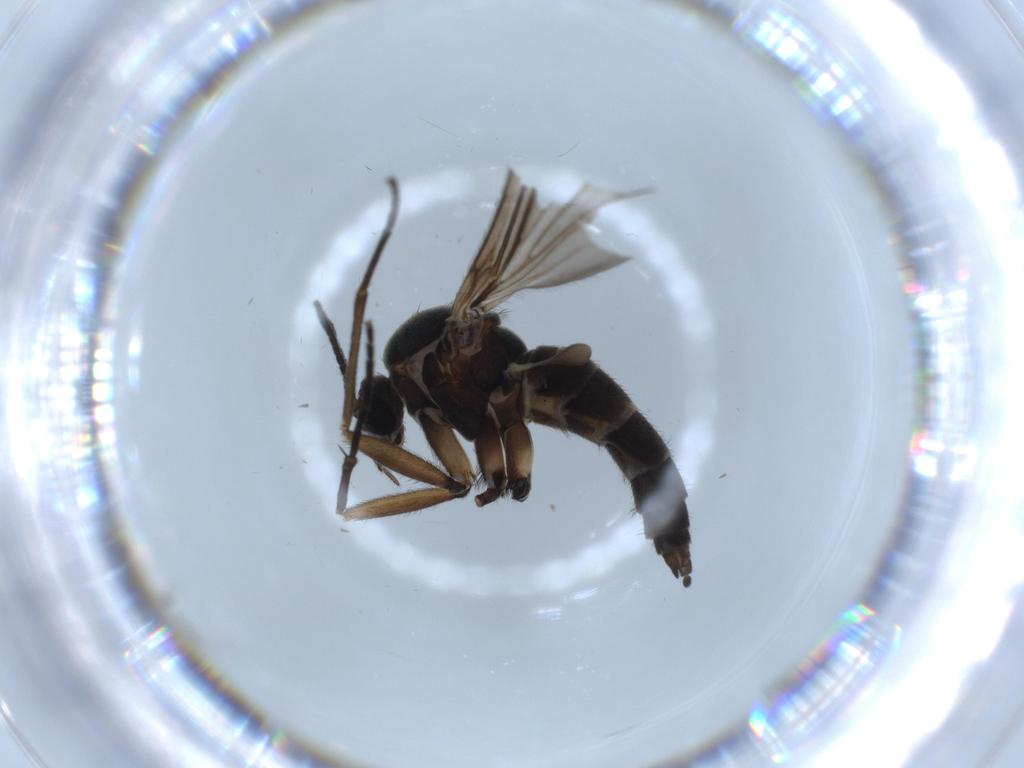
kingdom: Animalia
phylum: Arthropoda
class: Insecta
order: Diptera
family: Sciaridae
